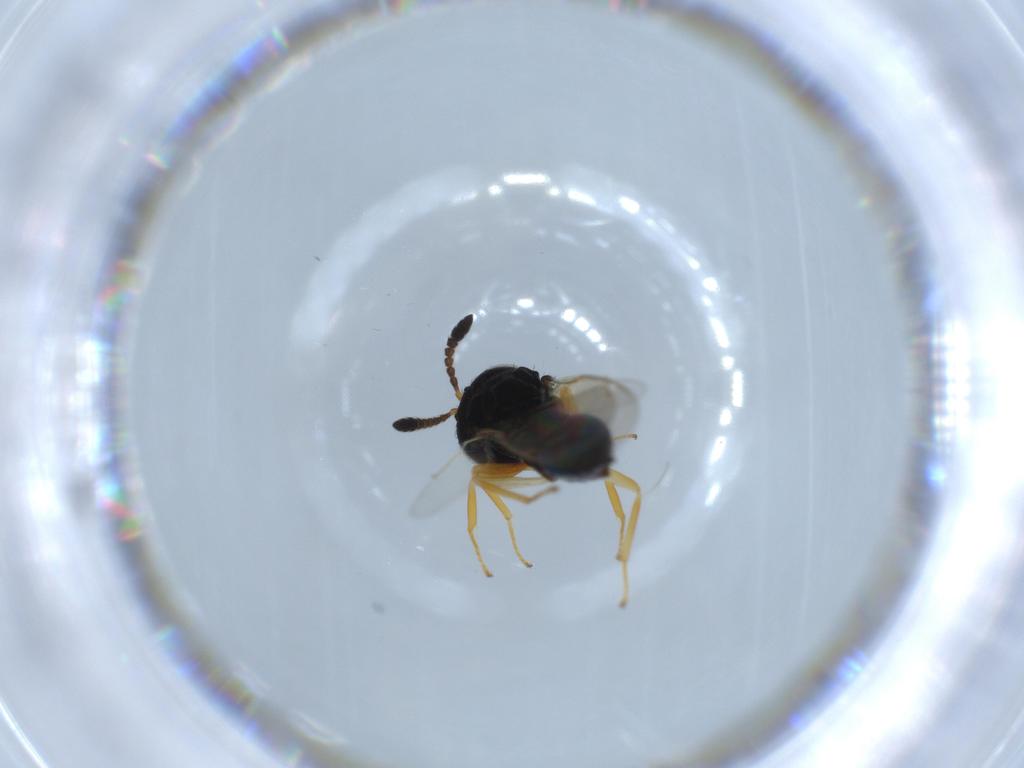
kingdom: Animalia
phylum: Arthropoda
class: Insecta
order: Hymenoptera
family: Pteromalidae
